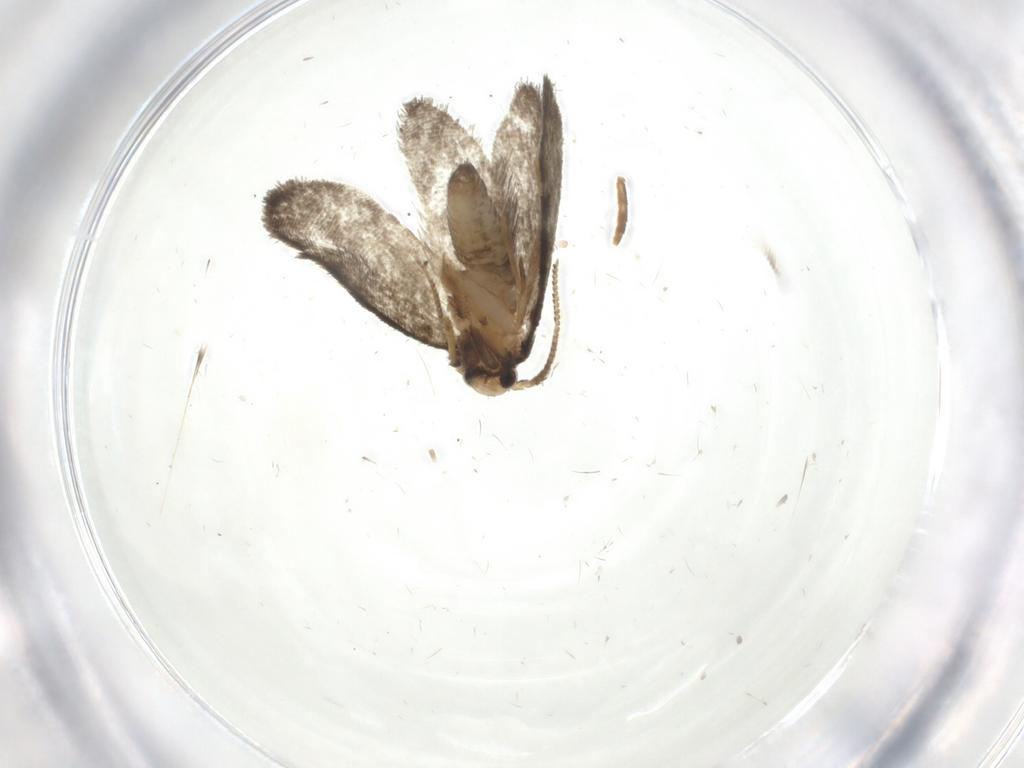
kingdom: Animalia
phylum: Arthropoda
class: Insecta
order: Lepidoptera
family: Psychidae
